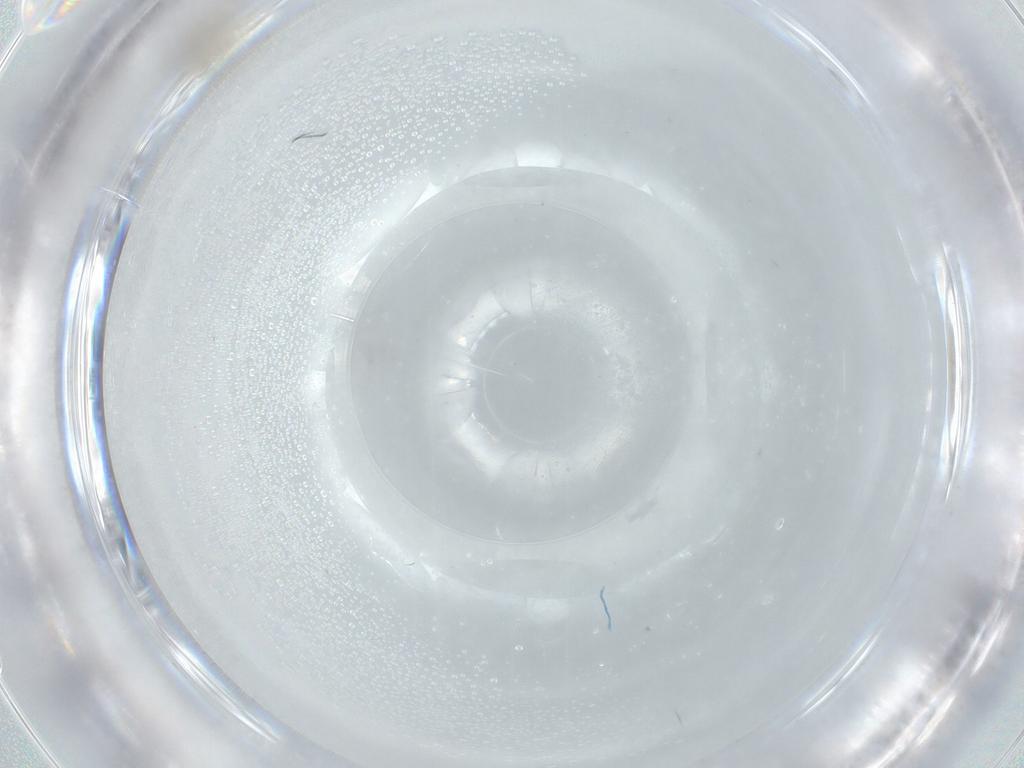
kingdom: Animalia
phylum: Arthropoda
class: Insecta
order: Diptera
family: Cecidomyiidae
